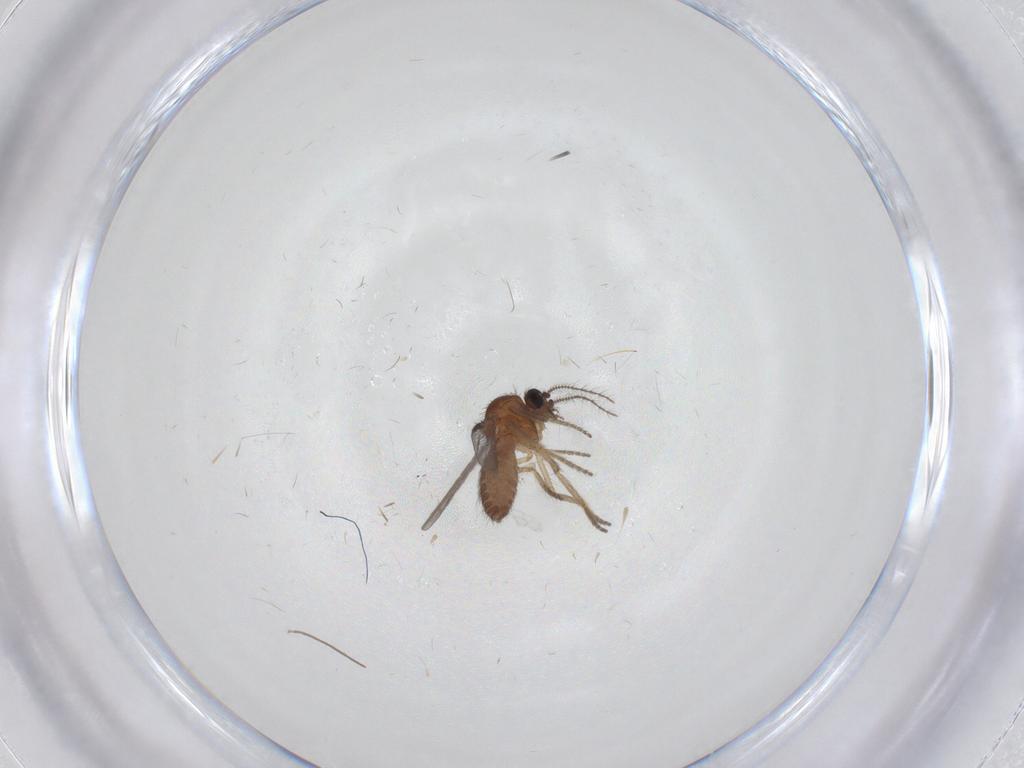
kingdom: Animalia
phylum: Arthropoda
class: Insecta
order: Diptera
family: Ceratopogonidae
